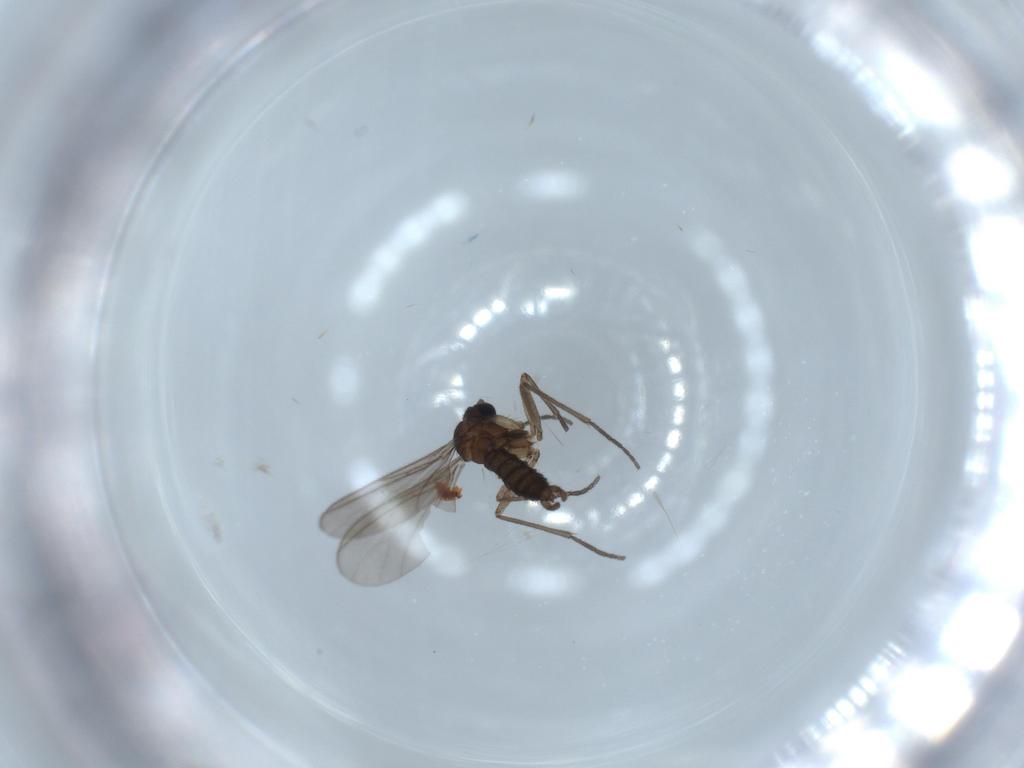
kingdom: Animalia
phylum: Arthropoda
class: Insecta
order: Diptera
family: Sciaridae
